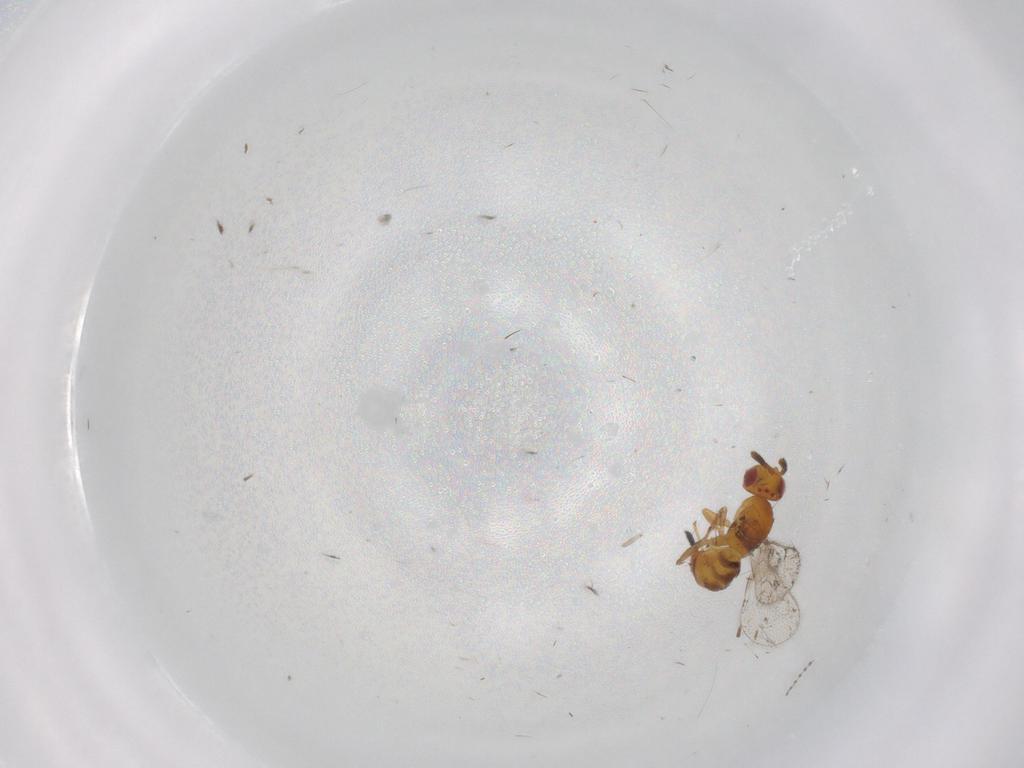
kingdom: Animalia
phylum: Arthropoda
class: Insecta
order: Hymenoptera
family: Torymidae
